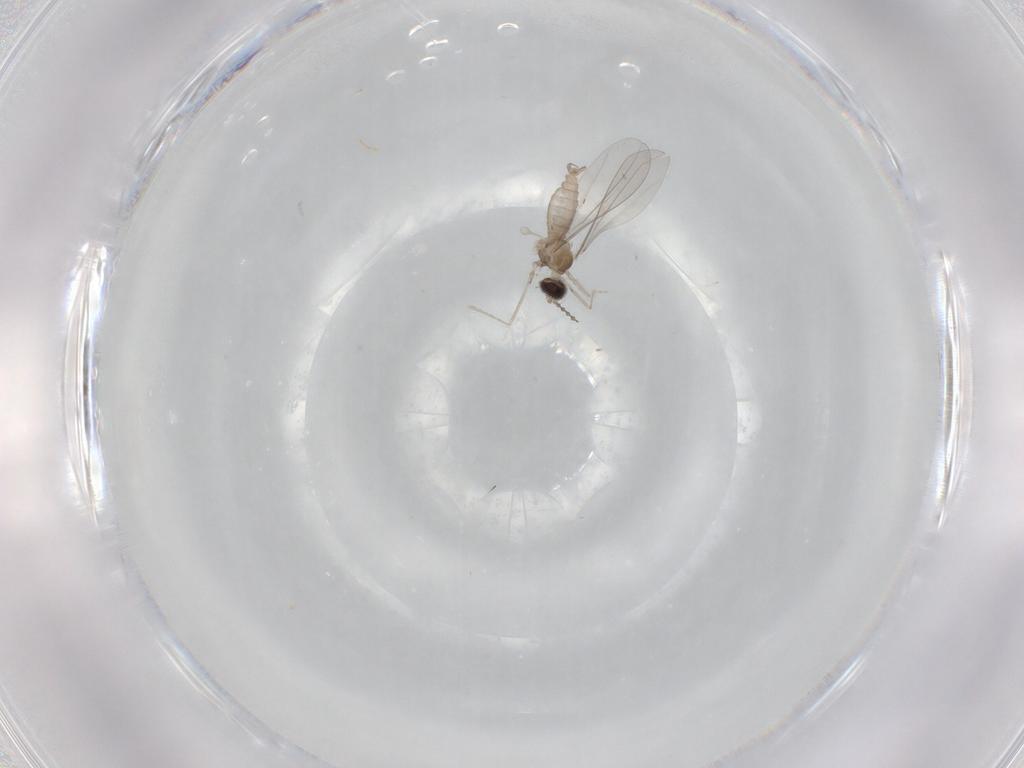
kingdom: Animalia
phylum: Arthropoda
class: Insecta
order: Diptera
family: Cecidomyiidae
